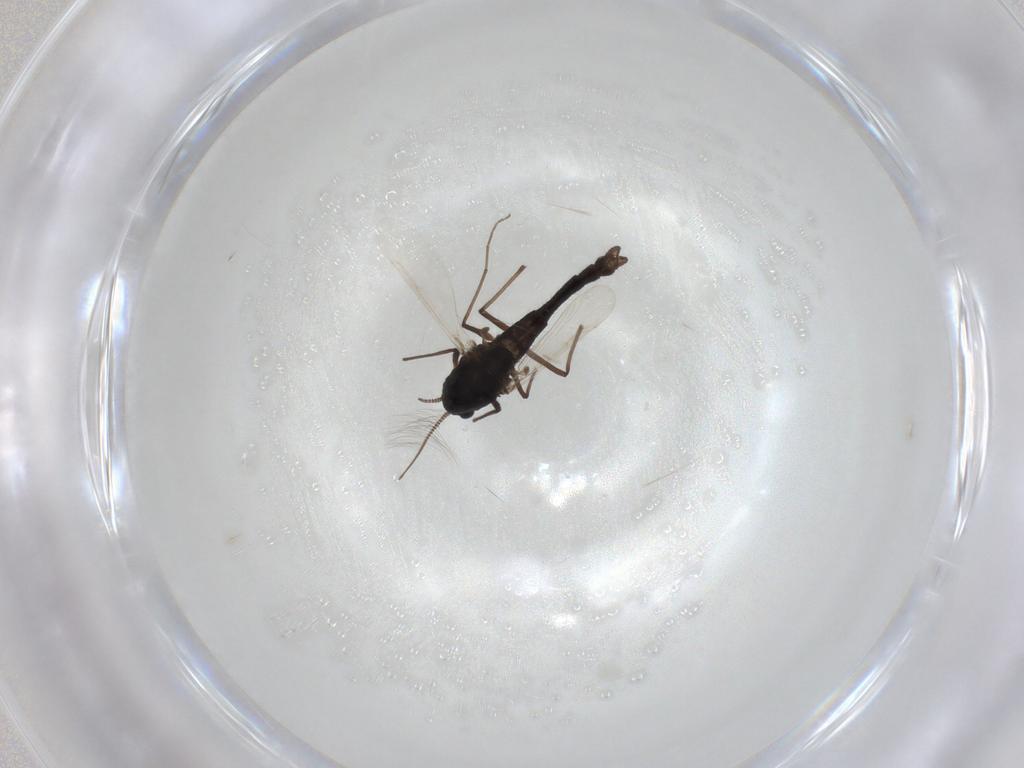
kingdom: Animalia
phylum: Arthropoda
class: Insecta
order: Diptera
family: Chironomidae
